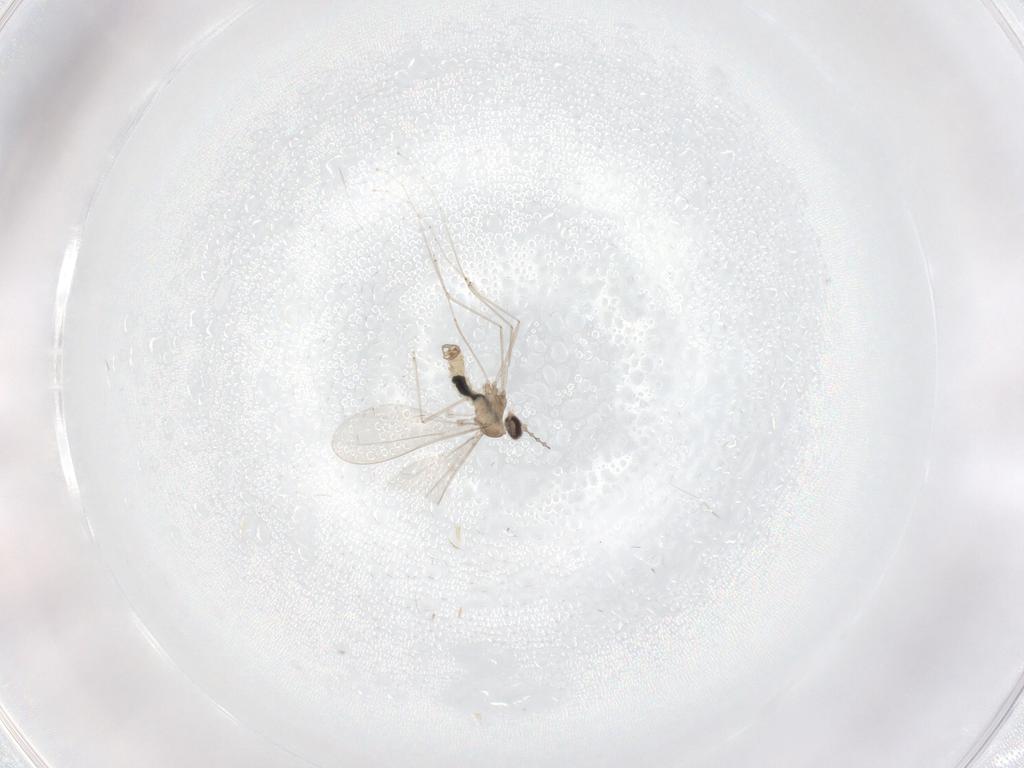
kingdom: Animalia
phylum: Arthropoda
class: Insecta
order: Diptera
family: Cecidomyiidae
